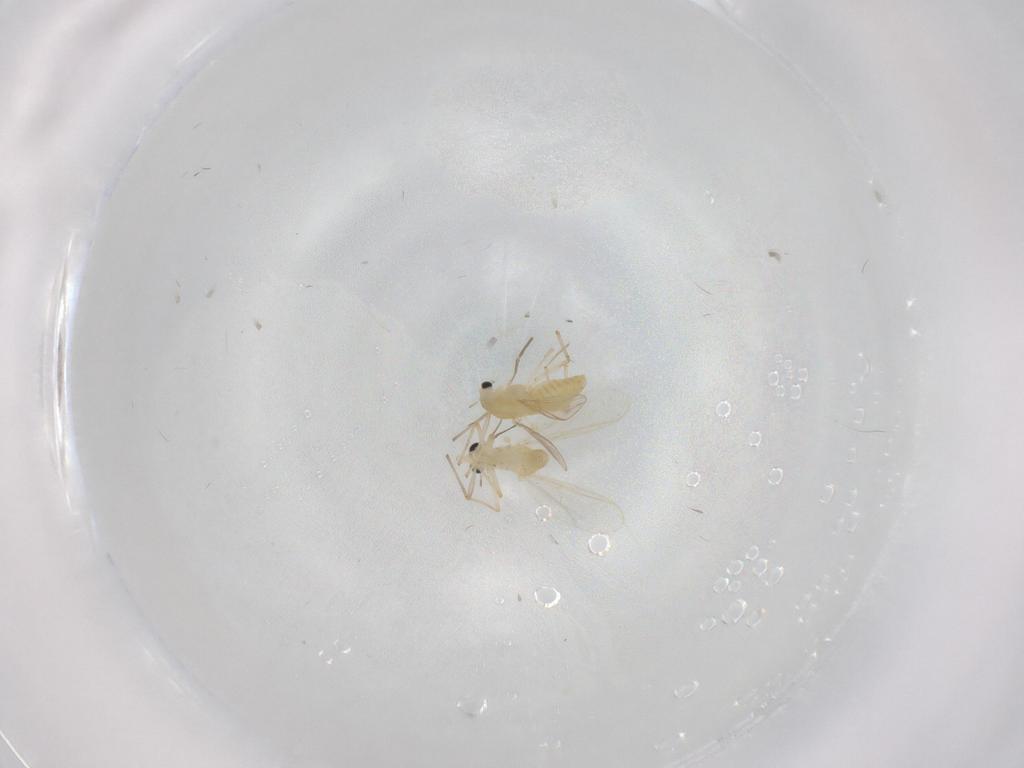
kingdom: Animalia
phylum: Arthropoda
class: Insecta
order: Diptera
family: Chironomidae
